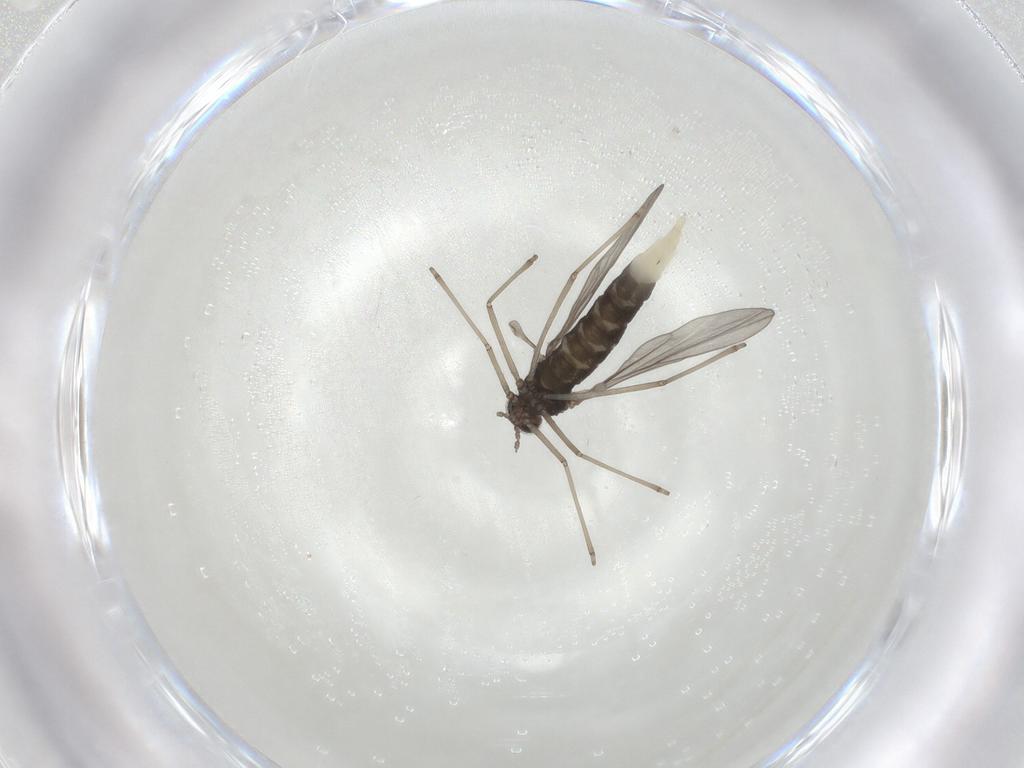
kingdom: Animalia
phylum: Arthropoda
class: Insecta
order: Diptera
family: Cecidomyiidae
